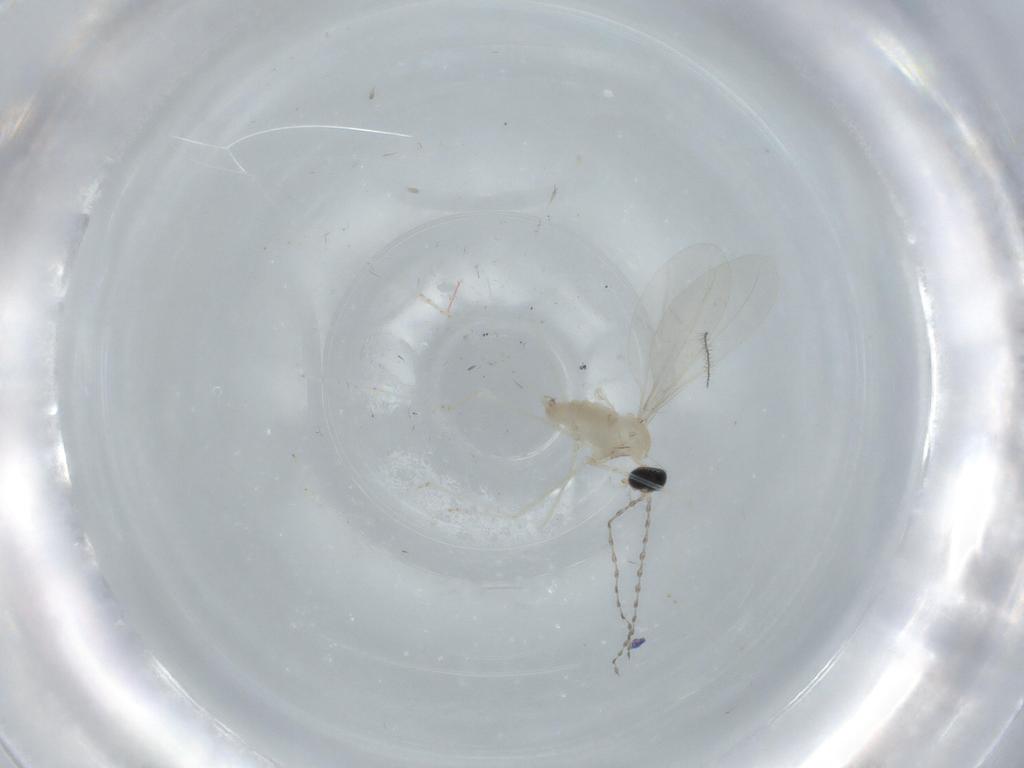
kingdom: Animalia
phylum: Arthropoda
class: Insecta
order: Diptera
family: Cecidomyiidae
